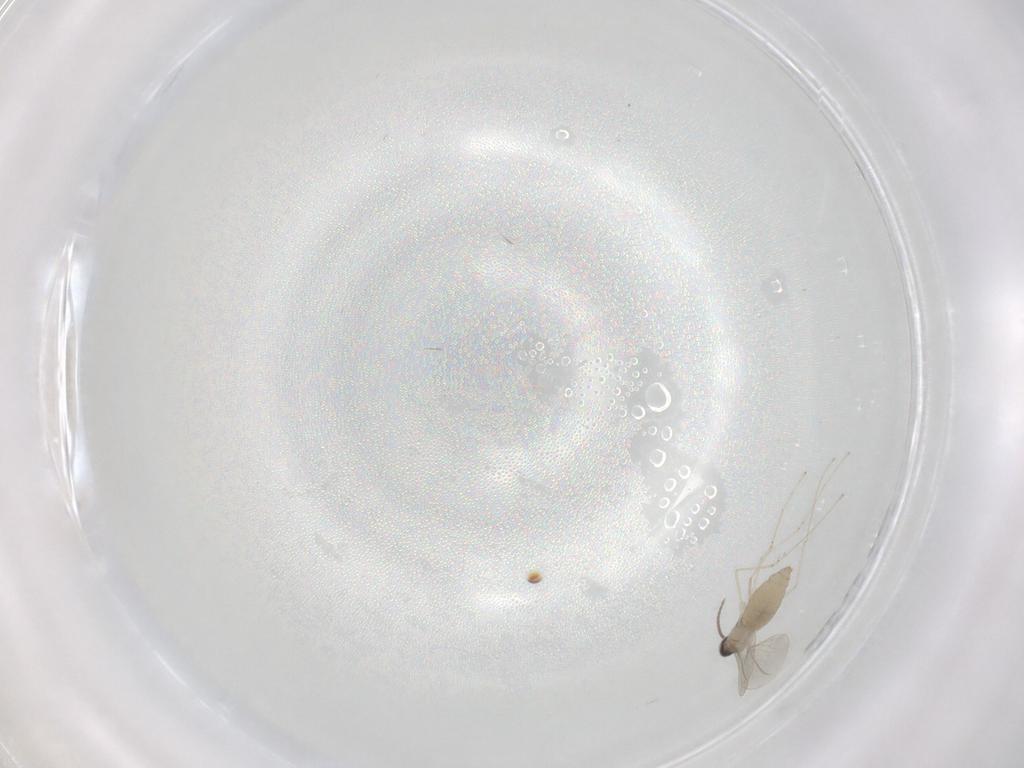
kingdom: Animalia
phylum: Arthropoda
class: Insecta
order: Diptera
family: Cecidomyiidae
